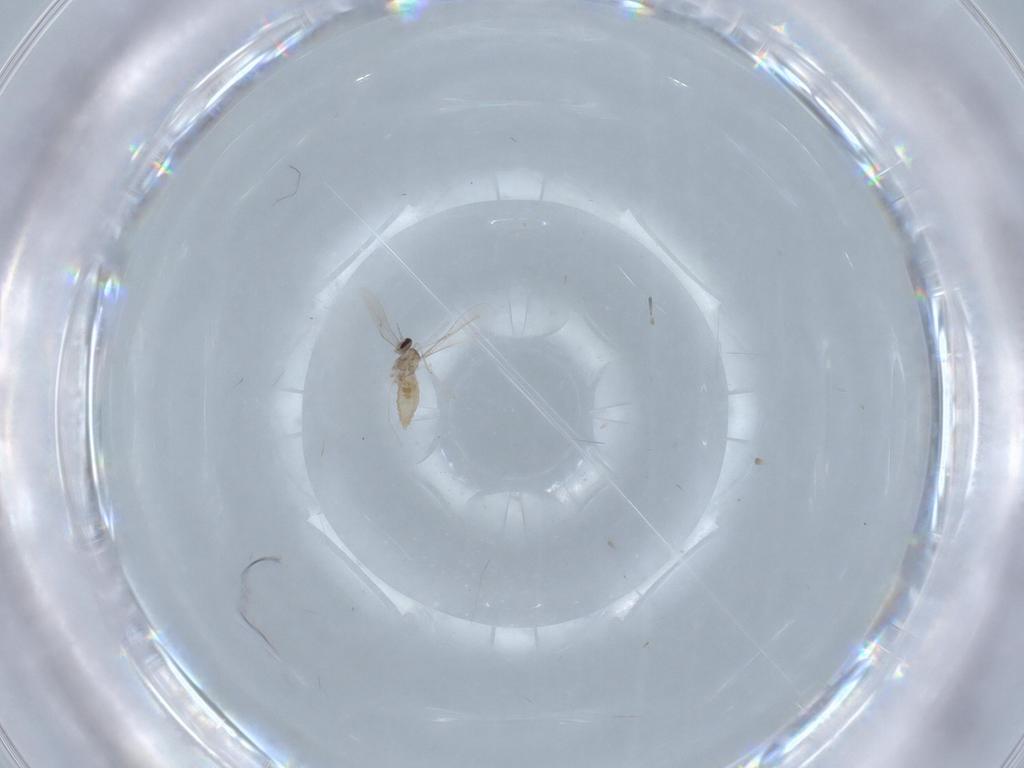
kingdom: Animalia
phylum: Arthropoda
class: Insecta
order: Diptera
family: Cecidomyiidae
